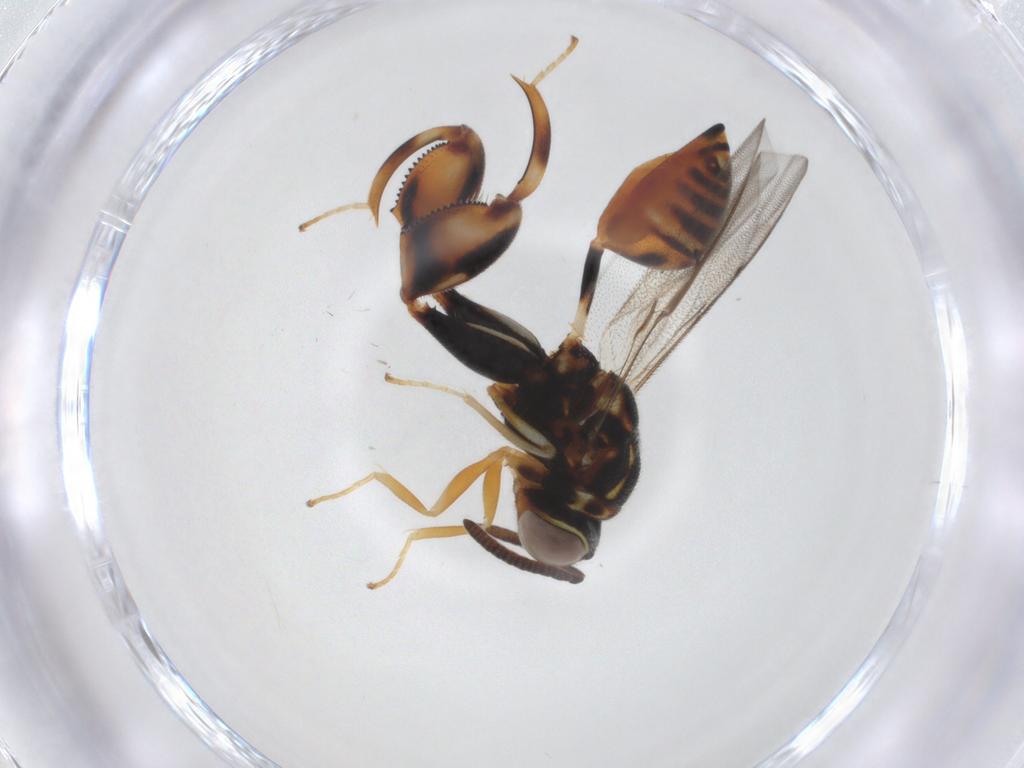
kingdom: Animalia
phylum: Arthropoda
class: Insecta
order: Hymenoptera
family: Chalcididae
